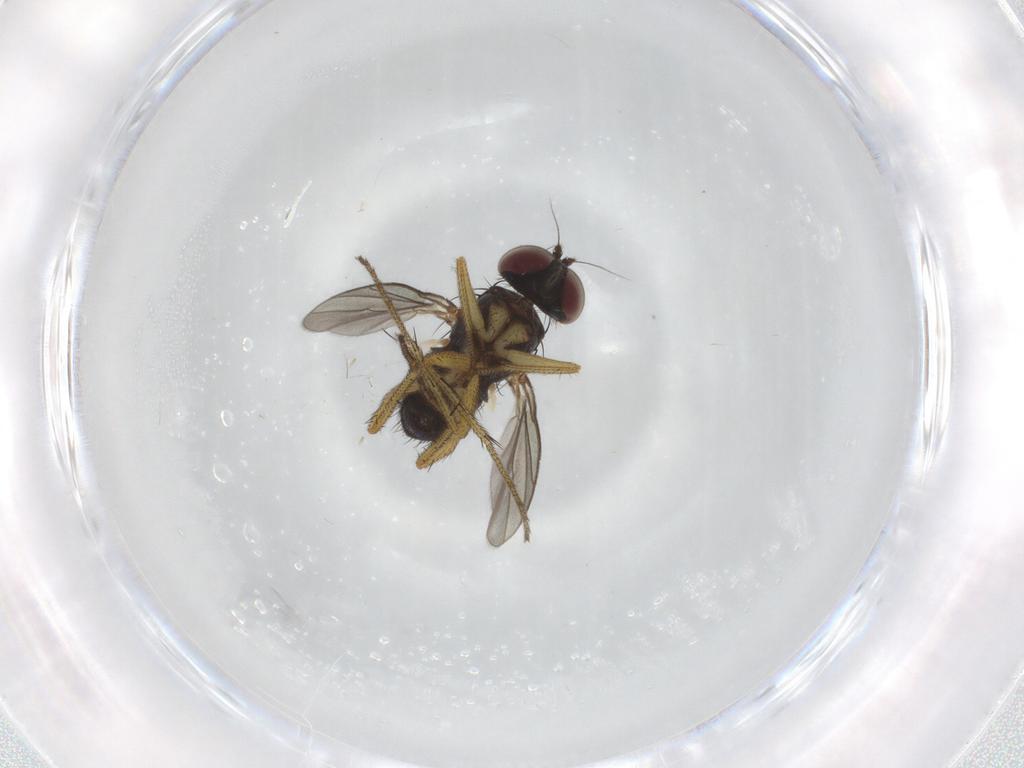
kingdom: Animalia
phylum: Arthropoda
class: Insecta
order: Diptera
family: Dolichopodidae
